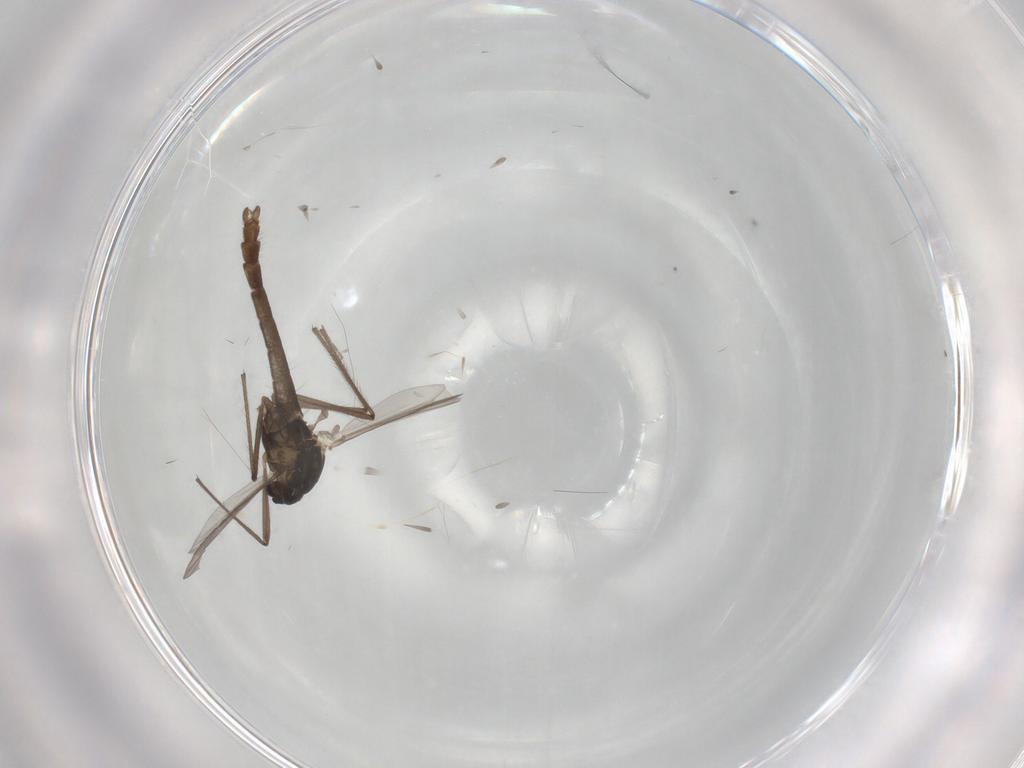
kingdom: Animalia
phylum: Arthropoda
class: Insecta
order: Diptera
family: Chironomidae
